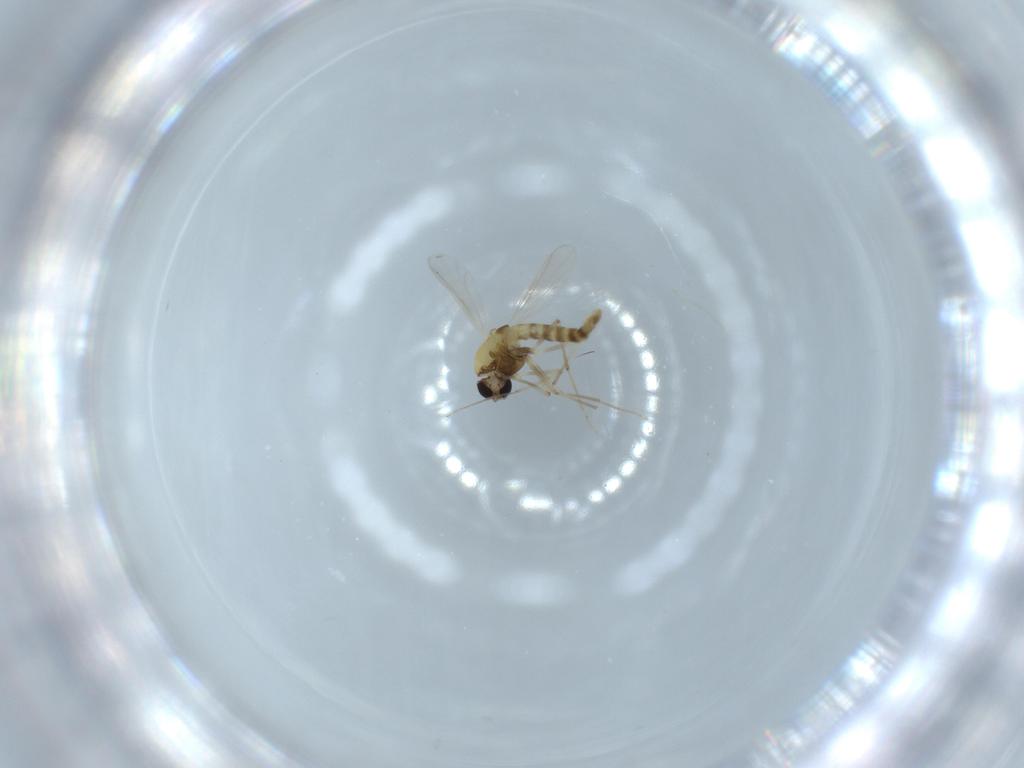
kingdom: Animalia
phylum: Arthropoda
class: Insecta
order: Diptera
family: Chironomidae
